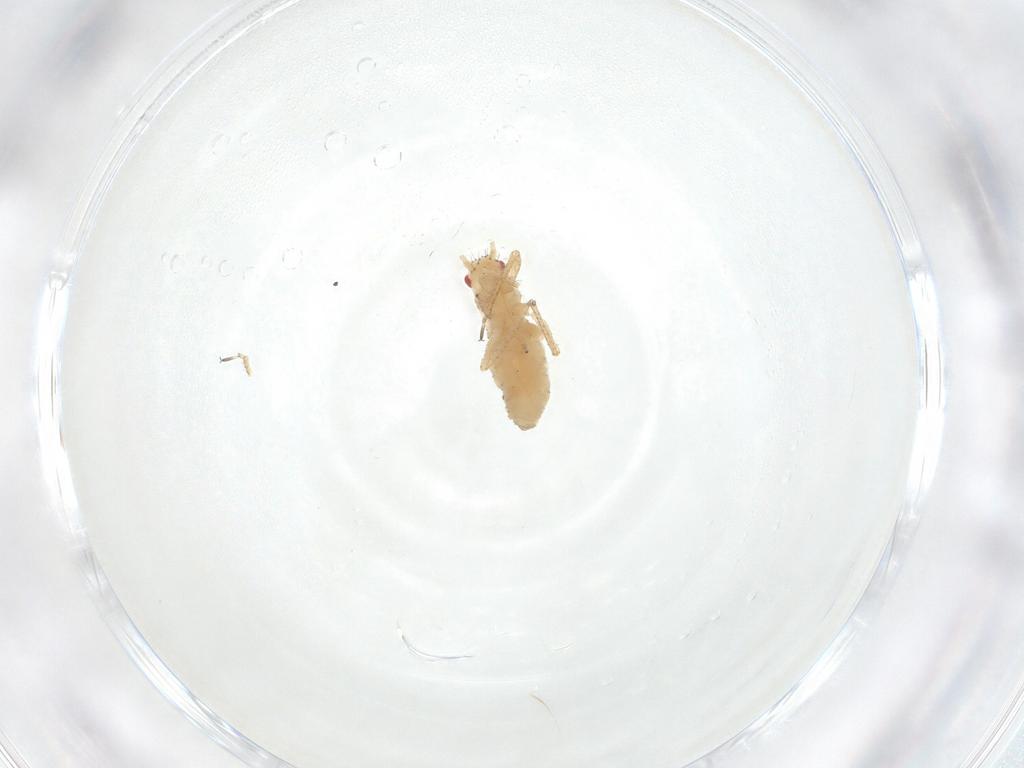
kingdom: Animalia
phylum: Arthropoda
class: Insecta
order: Hemiptera
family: Aphididae
